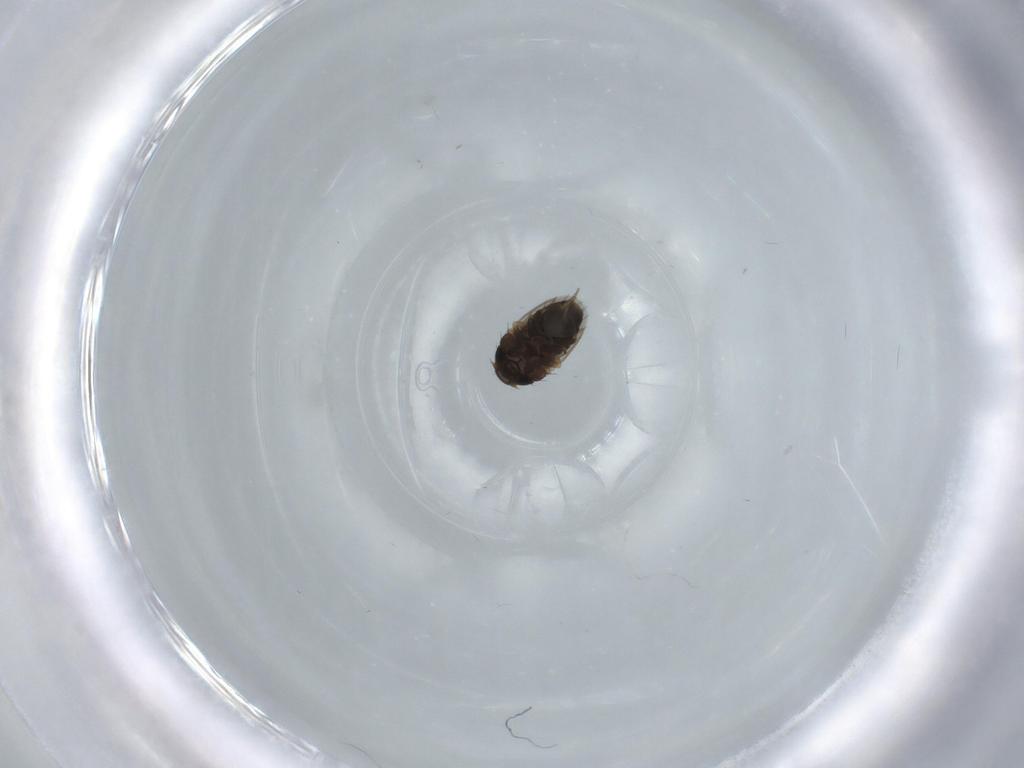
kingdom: Animalia
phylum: Arthropoda
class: Insecta
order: Diptera
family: Phoridae
